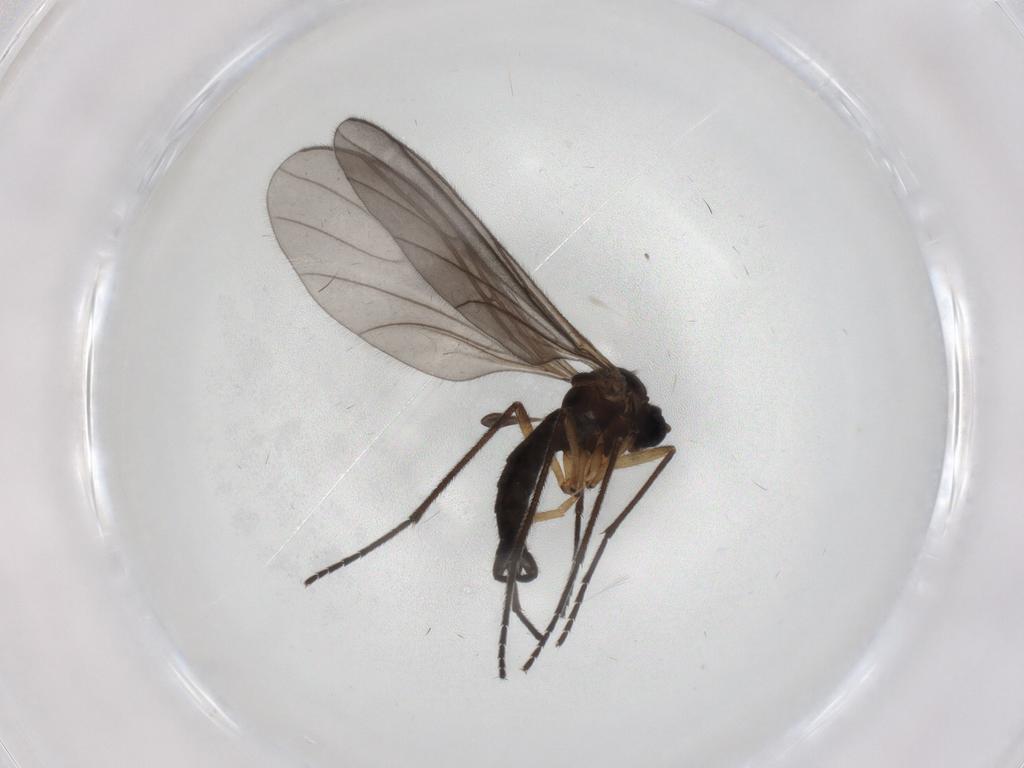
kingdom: Animalia
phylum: Arthropoda
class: Insecta
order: Diptera
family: Sciaridae
